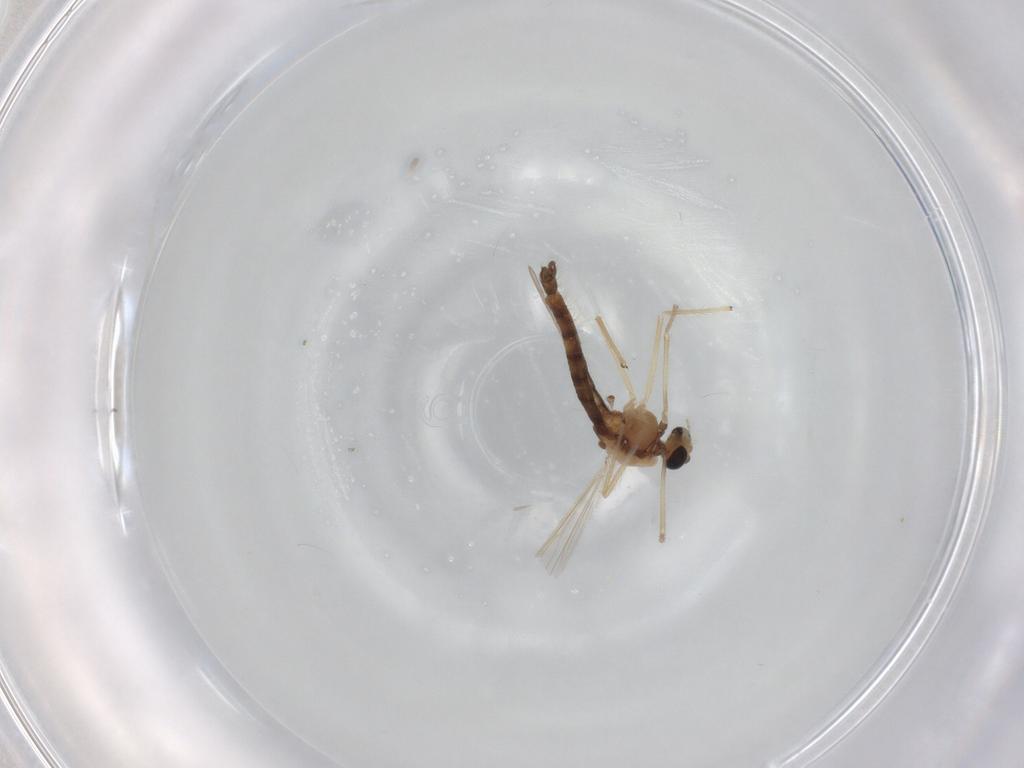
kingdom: Animalia
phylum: Arthropoda
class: Insecta
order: Diptera
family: Chironomidae
